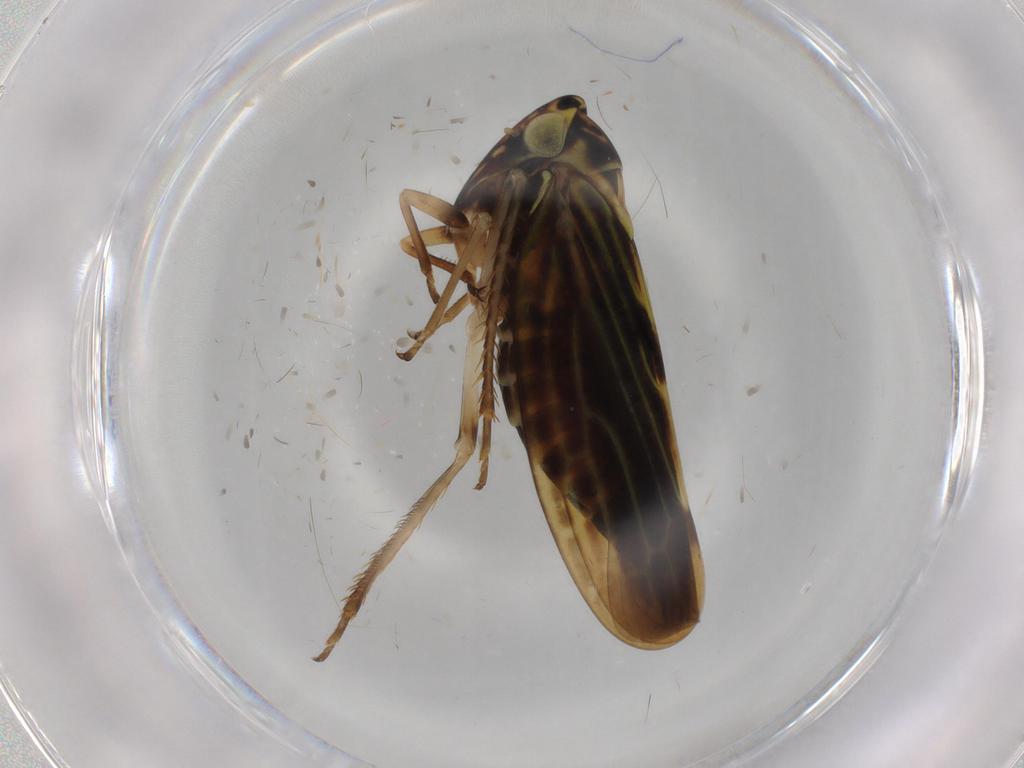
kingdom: Animalia
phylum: Arthropoda
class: Insecta
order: Hemiptera
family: Cicadellidae
